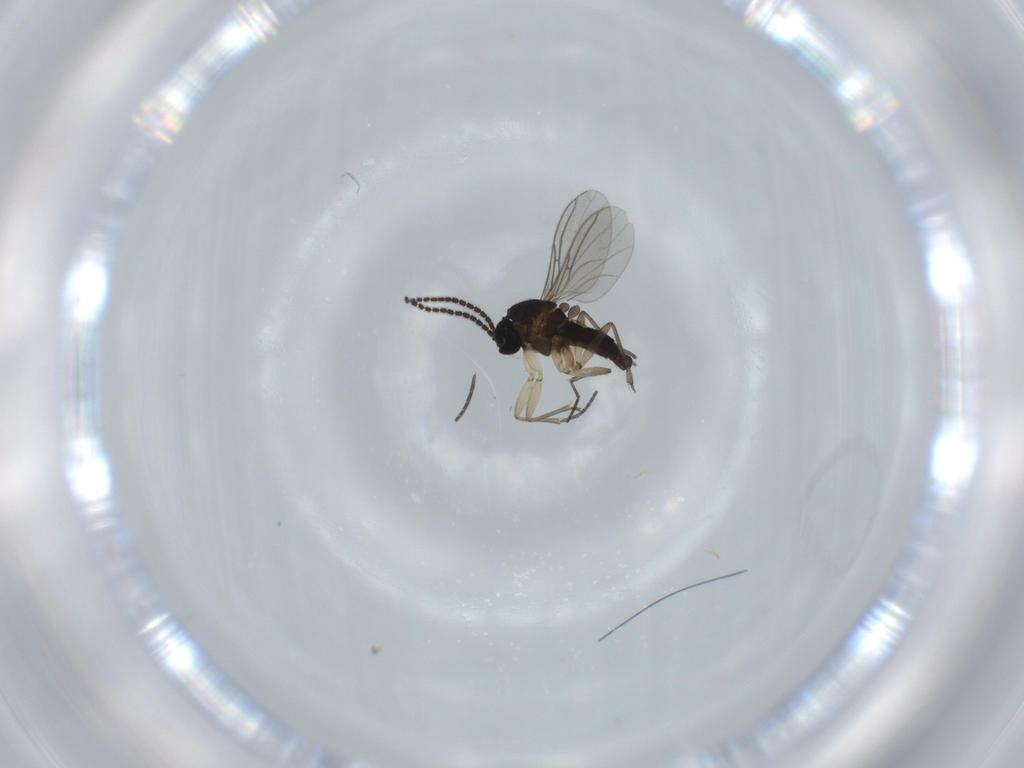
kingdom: Animalia
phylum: Arthropoda
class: Insecta
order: Diptera
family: Sciaridae
